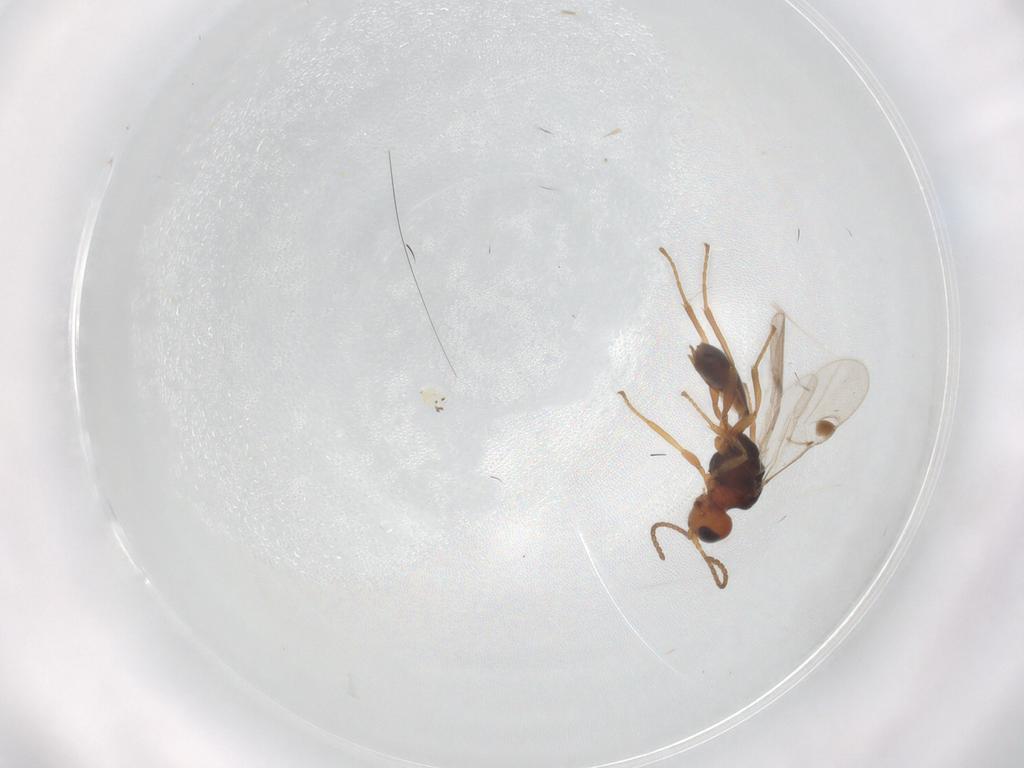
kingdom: Animalia
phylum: Arthropoda
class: Insecta
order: Hymenoptera
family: Braconidae
